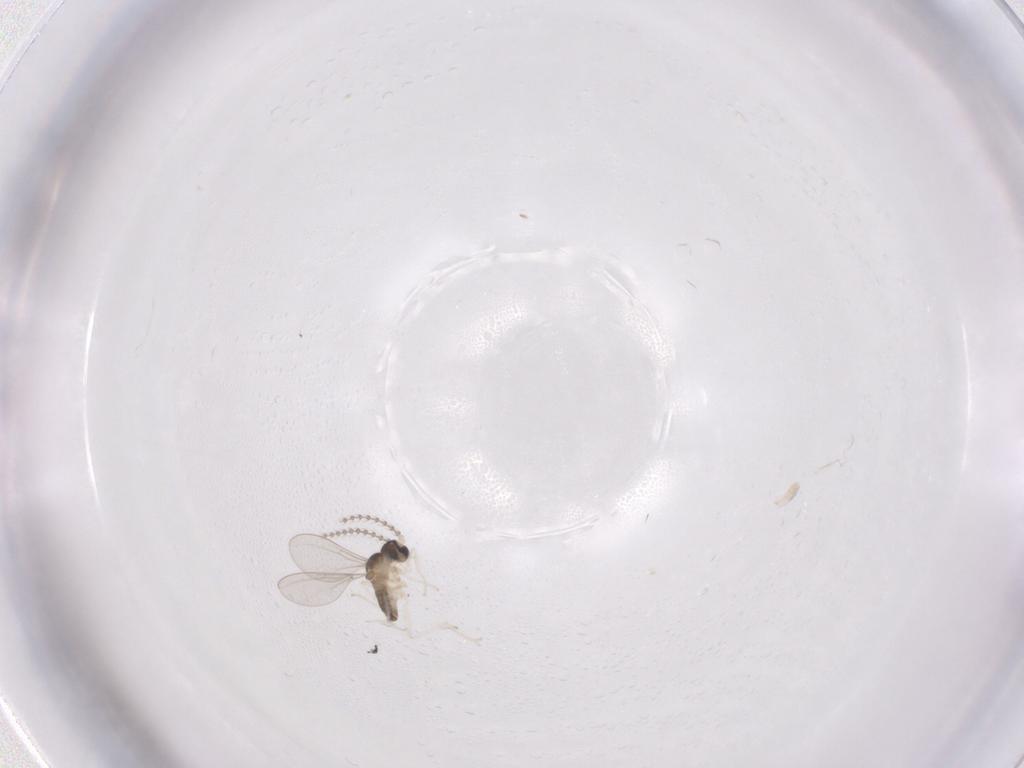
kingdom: Animalia
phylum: Arthropoda
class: Insecta
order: Diptera
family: Cecidomyiidae
